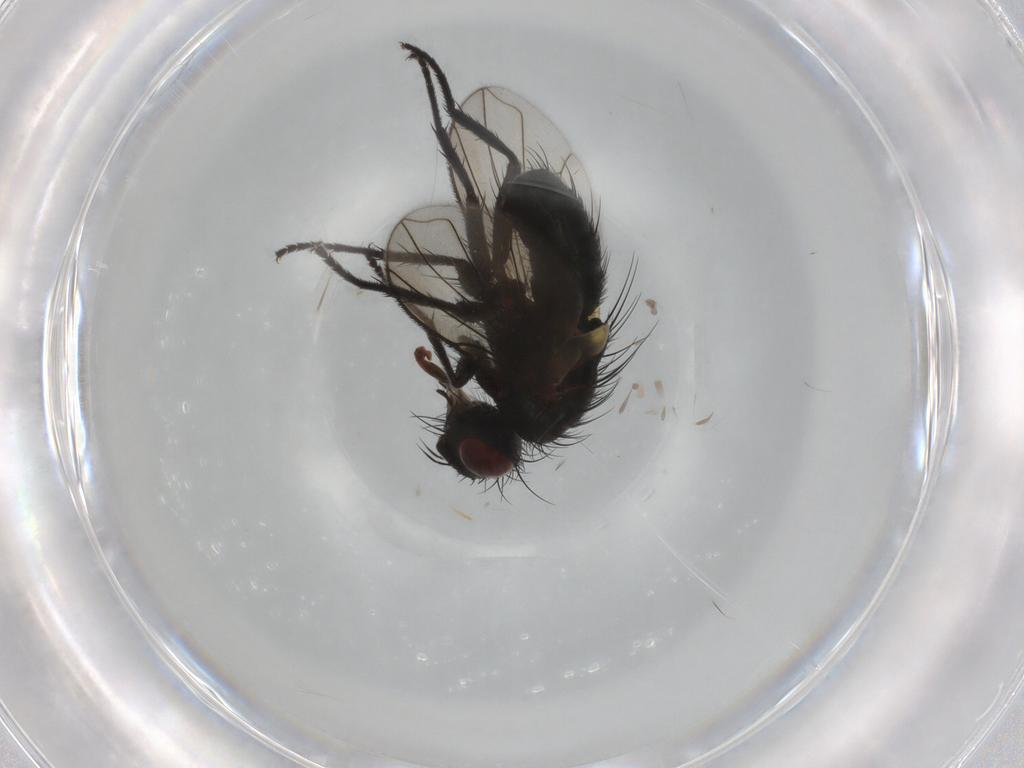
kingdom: Animalia
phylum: Arthropoda
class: Insecta
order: Diptera
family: Tachinidae
